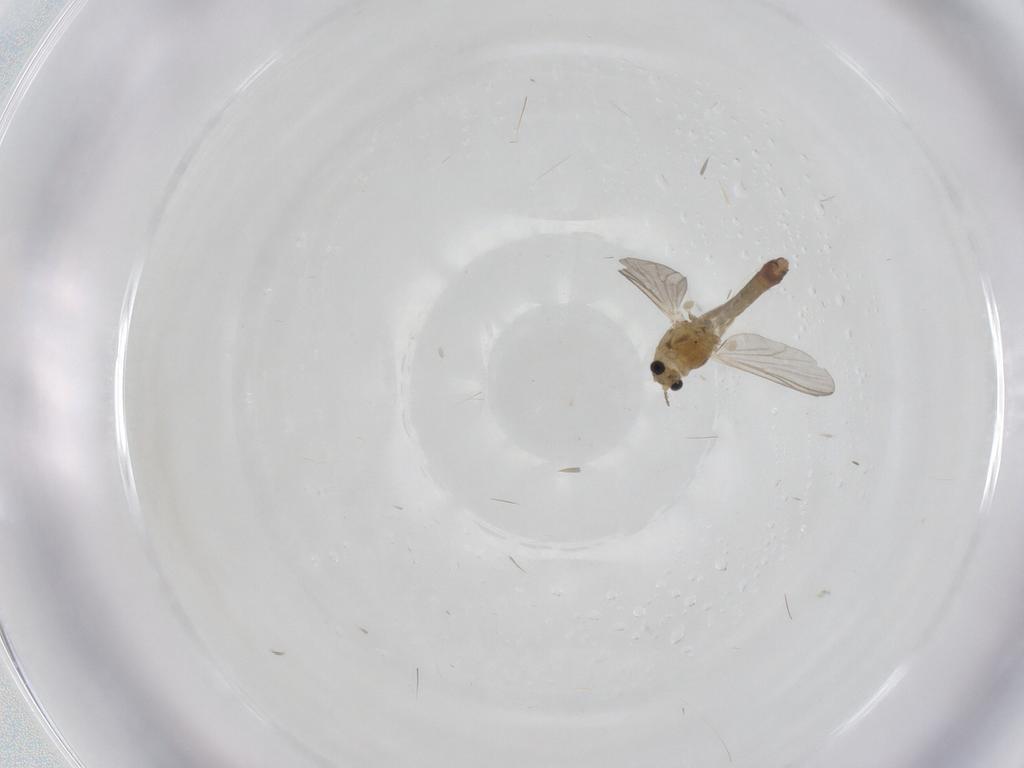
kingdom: Animalia
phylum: Arthropoda
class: Insecta
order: Diptera
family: Chironomidae
